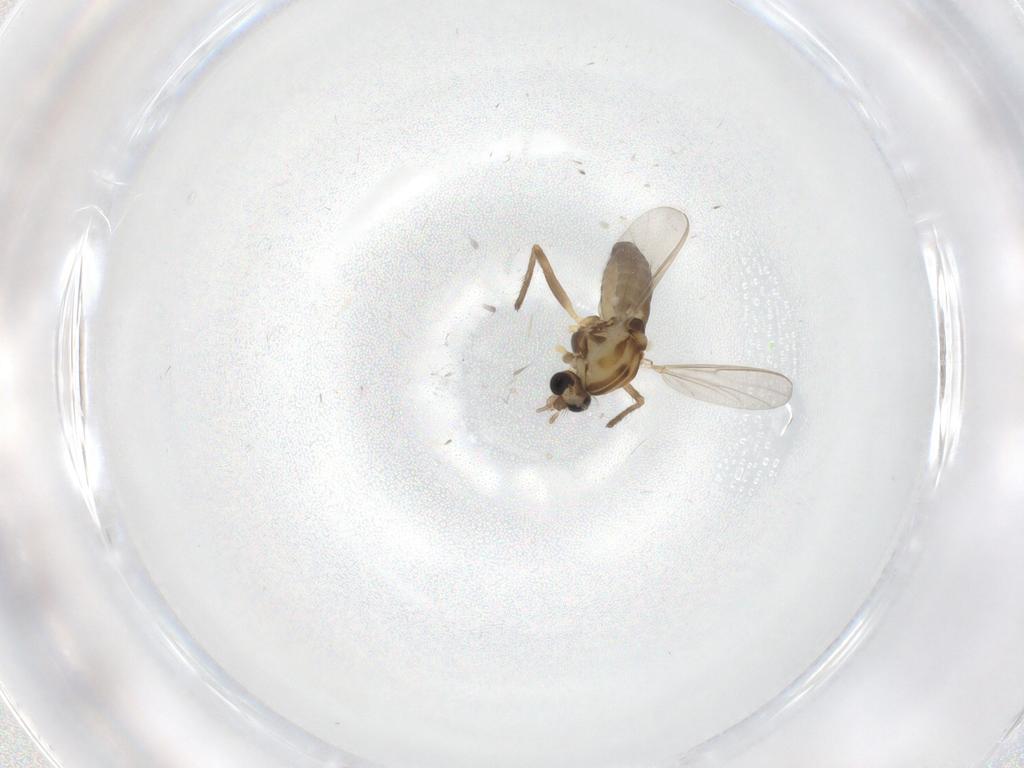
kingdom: Animalia
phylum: Arthropoda
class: Insecta
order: Diptera
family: Chironomidae
